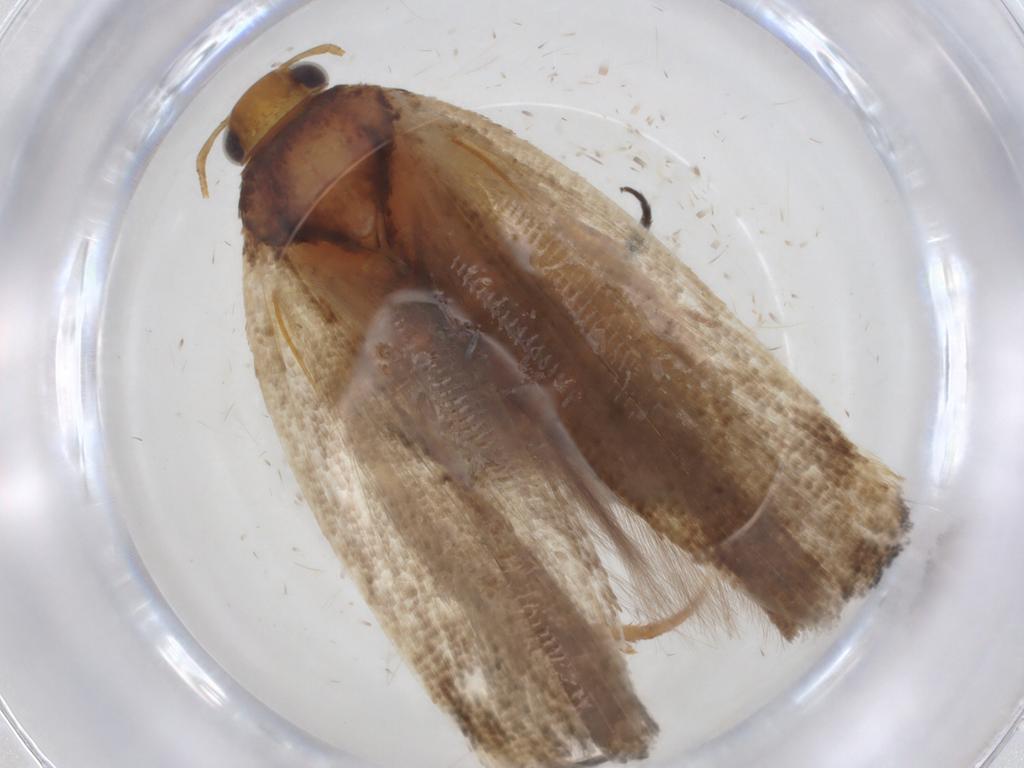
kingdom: Animalia
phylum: Arthropoda
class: Insecta
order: Lepidoptera
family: Gelechiidae
